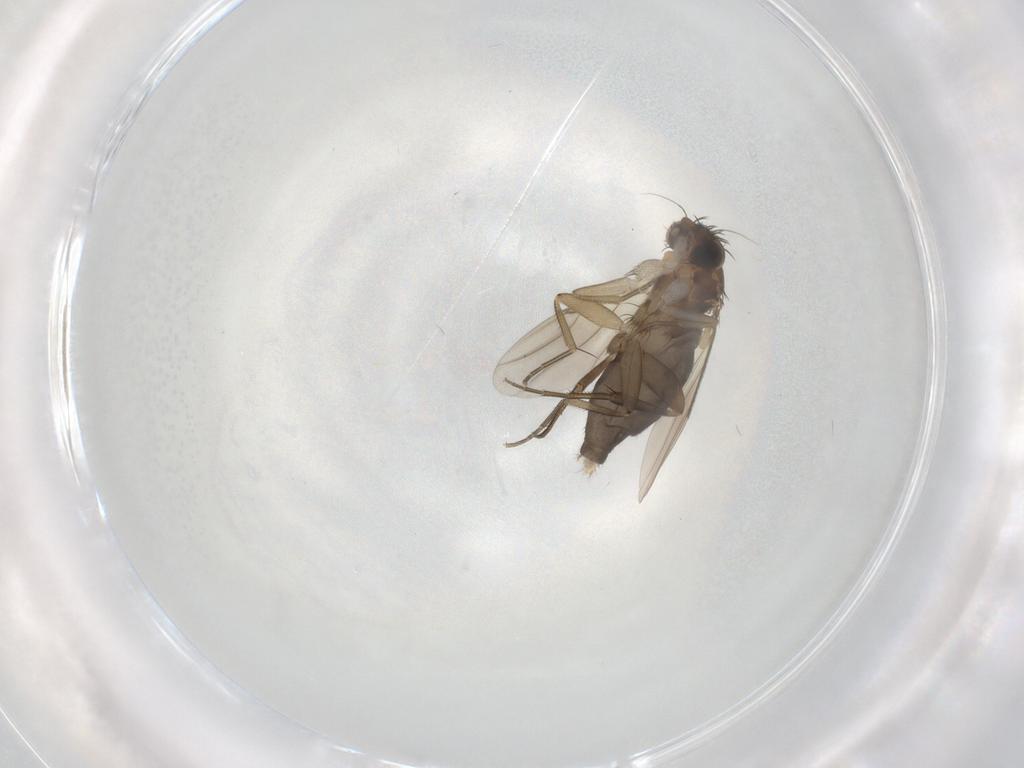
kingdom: Animalia
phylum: Arthropoda
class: Insecta
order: Diptera
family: Phoridae
